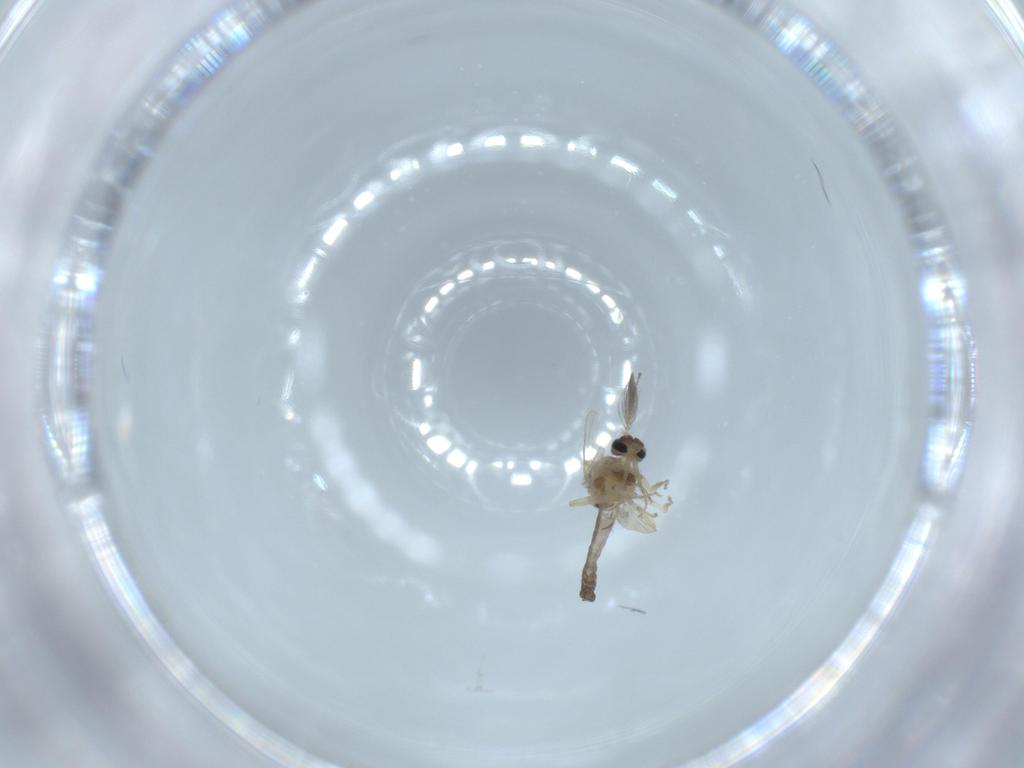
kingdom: Animalia
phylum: Arthropoda
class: Insecta
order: Diptera
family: Ceratopogonidae
